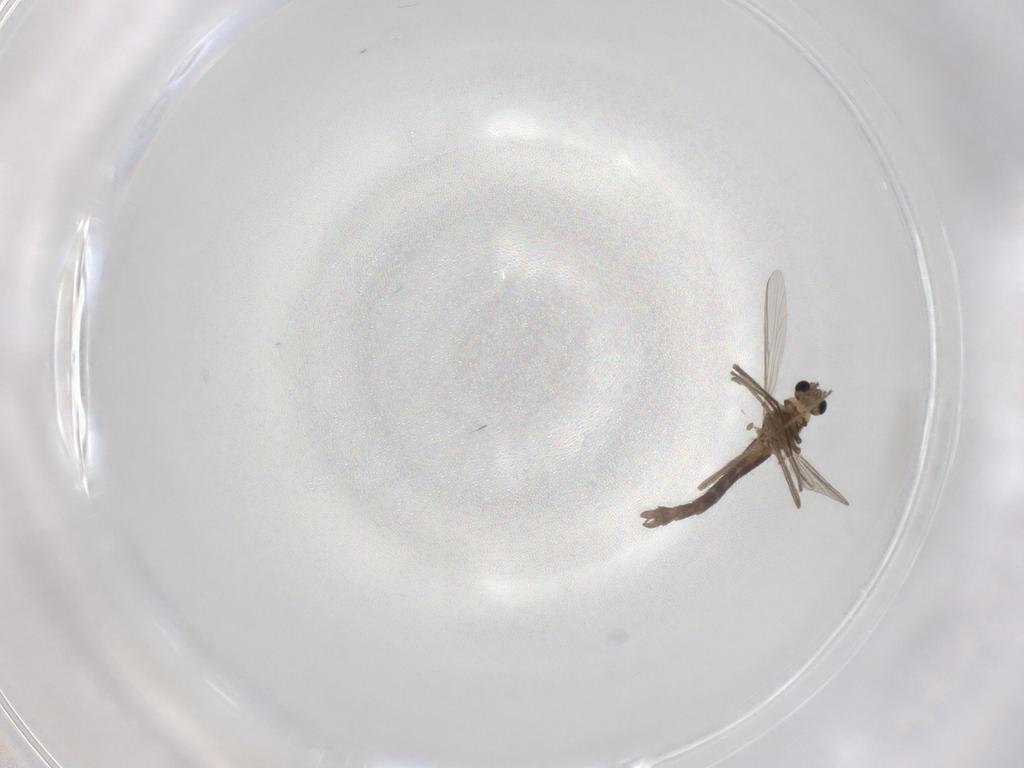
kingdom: Animalia
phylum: Arthropoda
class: Insecta
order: Diptera
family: Chironomidae
